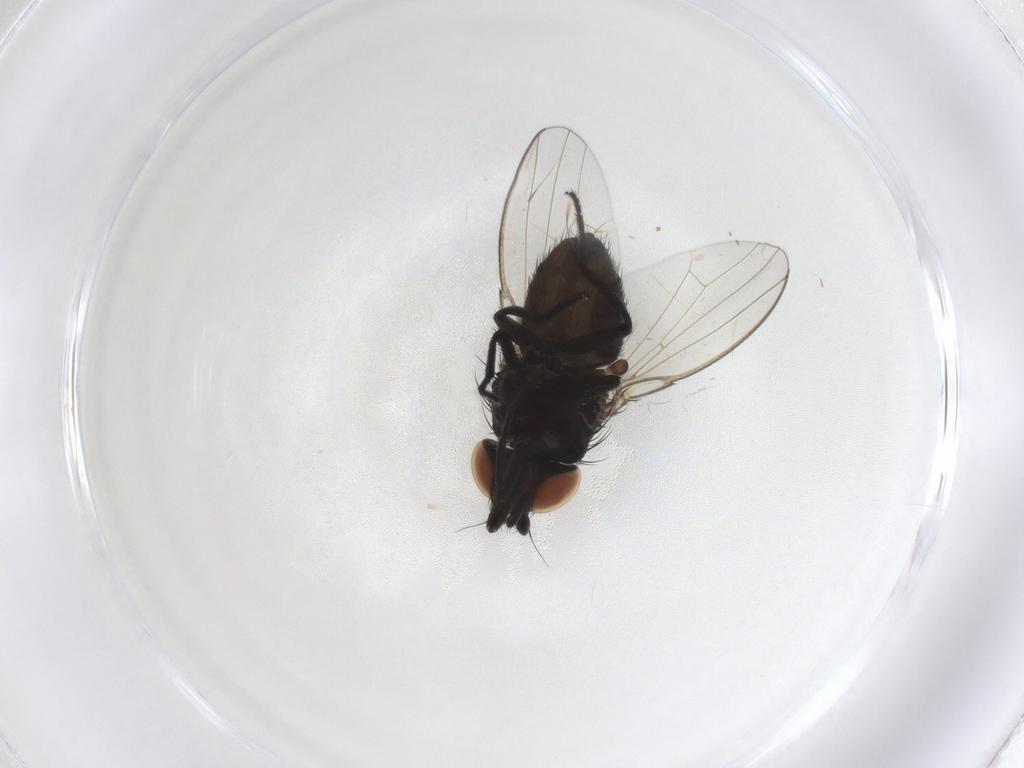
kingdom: Animalia
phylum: Arthropoda
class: Insecta
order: Diptera
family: Milichiidae
